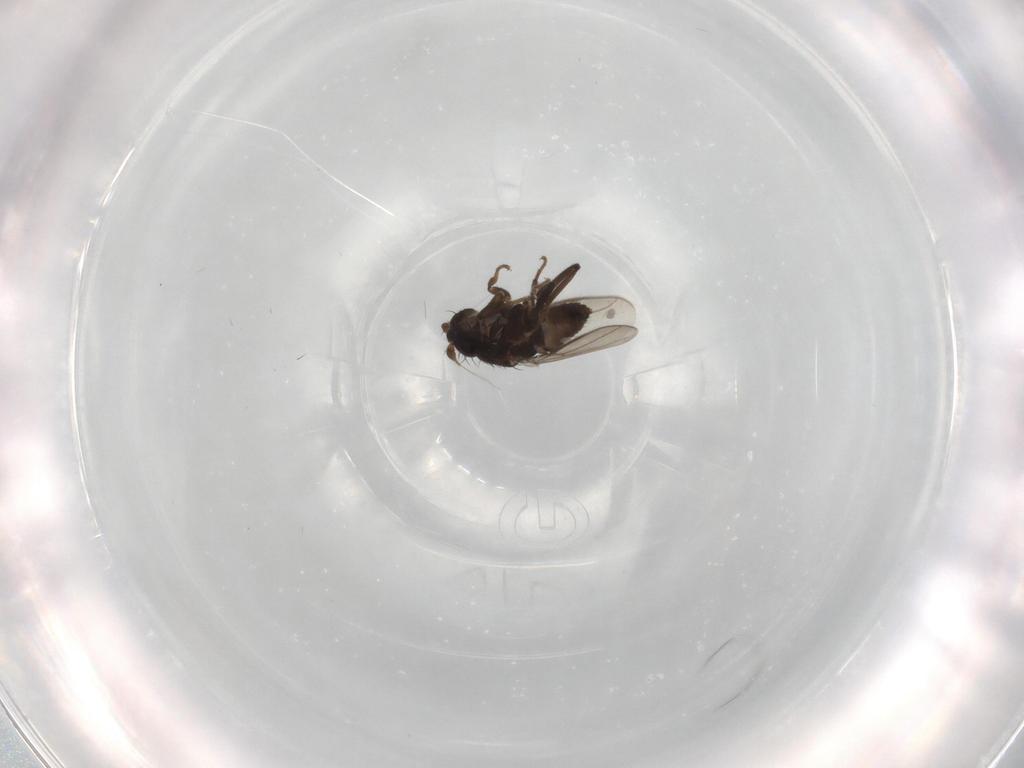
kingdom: Animalia
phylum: Arthropoda
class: Insecta
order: Diptera
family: Sphaeroceridae
